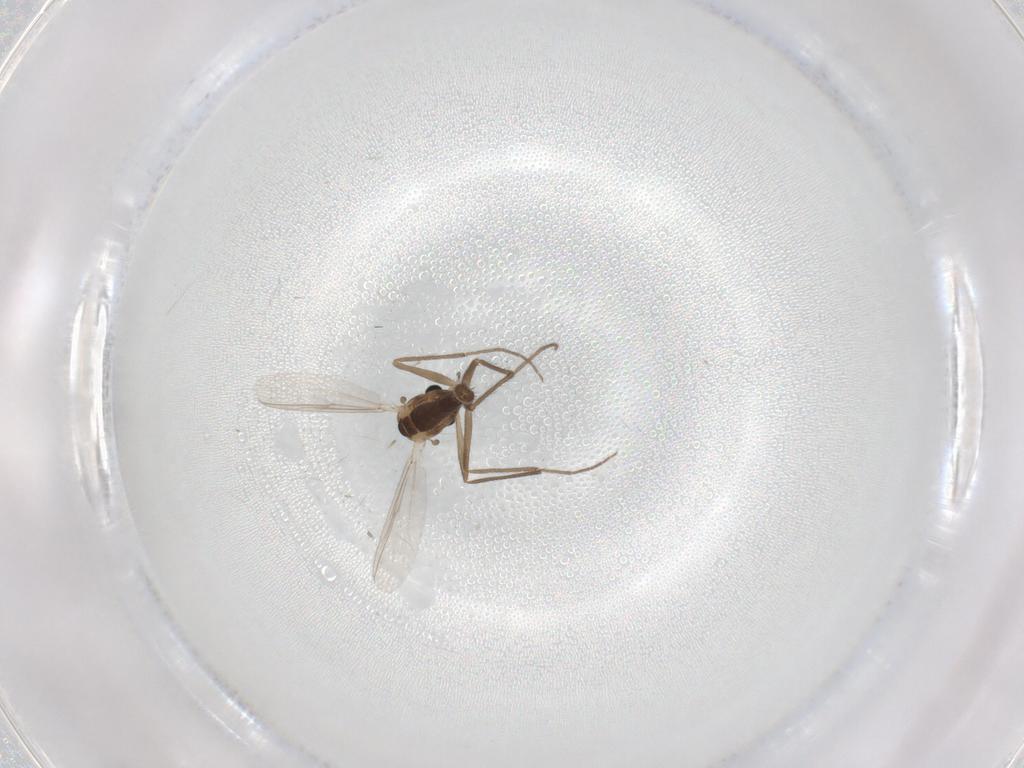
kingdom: Animalia
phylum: Arthropoda
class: Insecta
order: Diptera
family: Chironomidae
